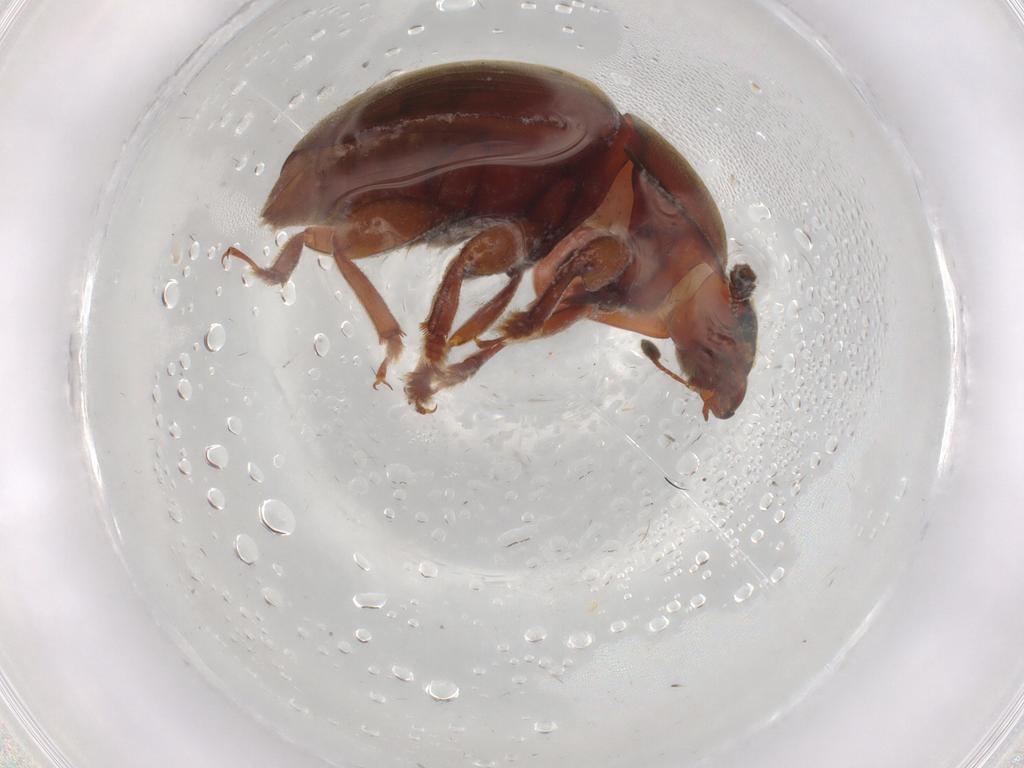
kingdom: Animalia
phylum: Arthropoda
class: Insecta
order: Coleoptera
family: Nitidulidae
